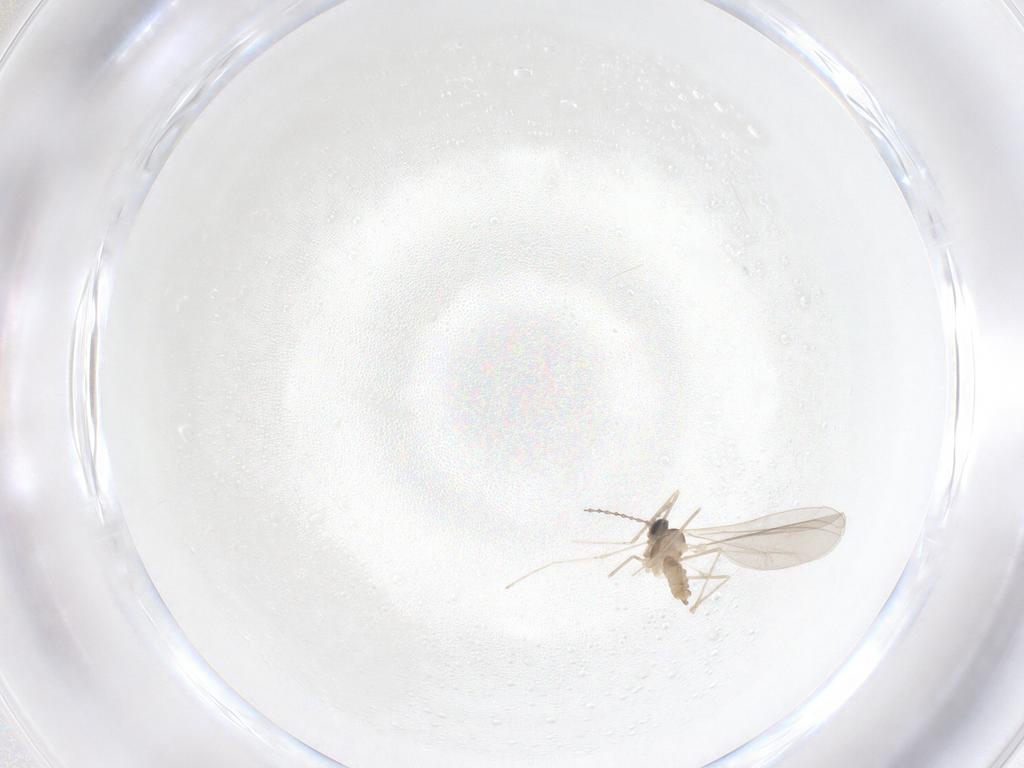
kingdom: Animalia
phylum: Arthropoda
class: Insecta
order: Diptera
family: Cecidomyiidae
